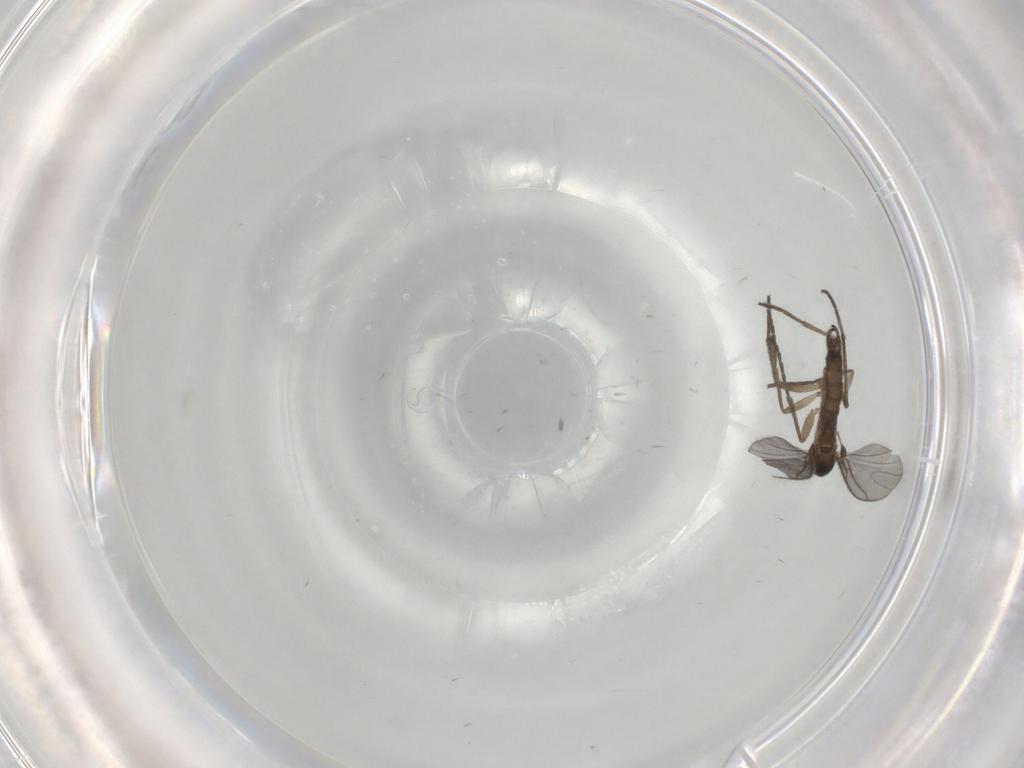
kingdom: Animalia
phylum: Arthropoda
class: Insecta
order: Diptera
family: Sciaridae
